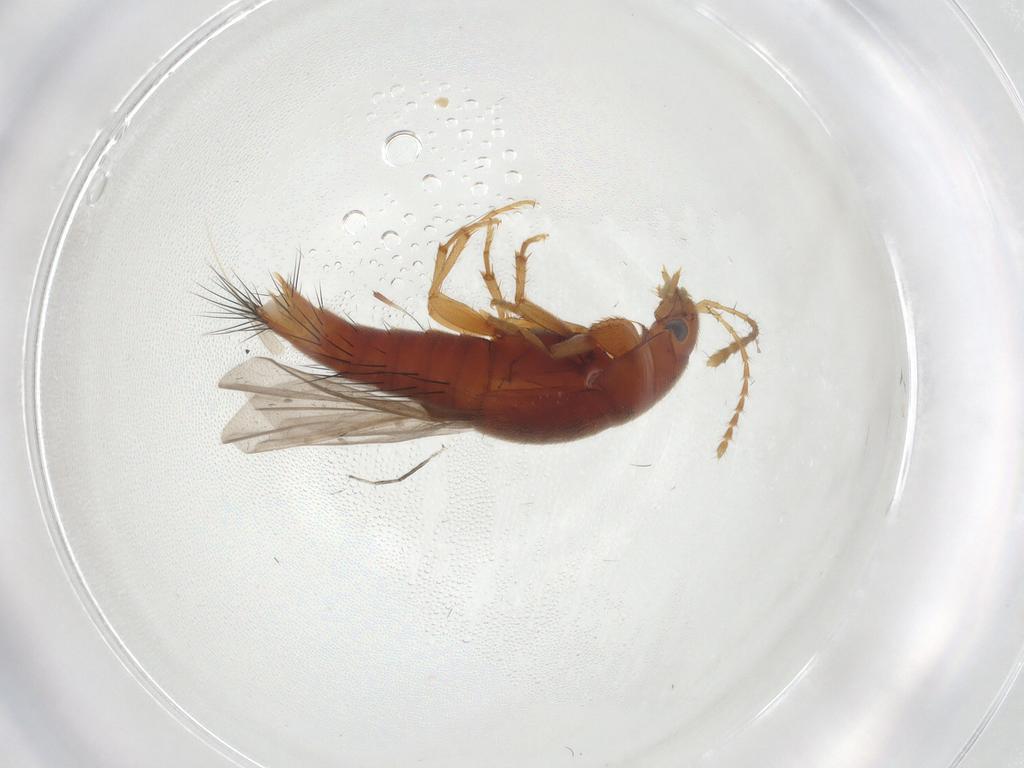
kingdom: Animalia
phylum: Arthropoda
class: Insecta
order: Coleoptera
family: Staphylinidae
